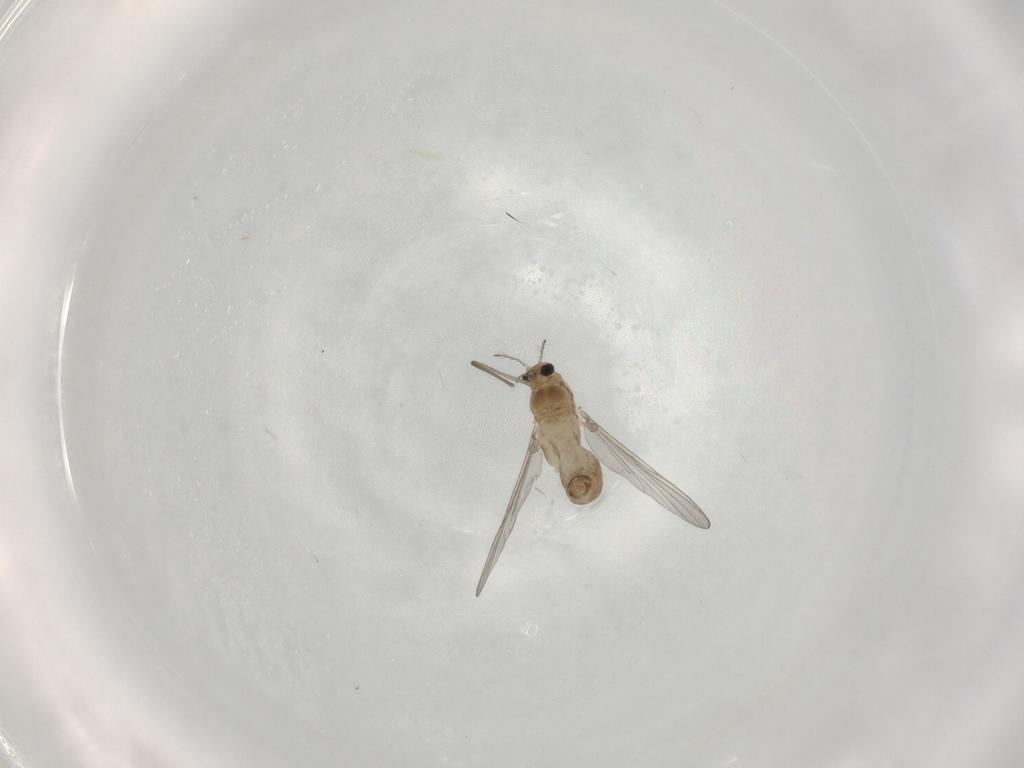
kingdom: Animalia
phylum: Arthropoda
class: Insecta
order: Diptera
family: Chironomidae
